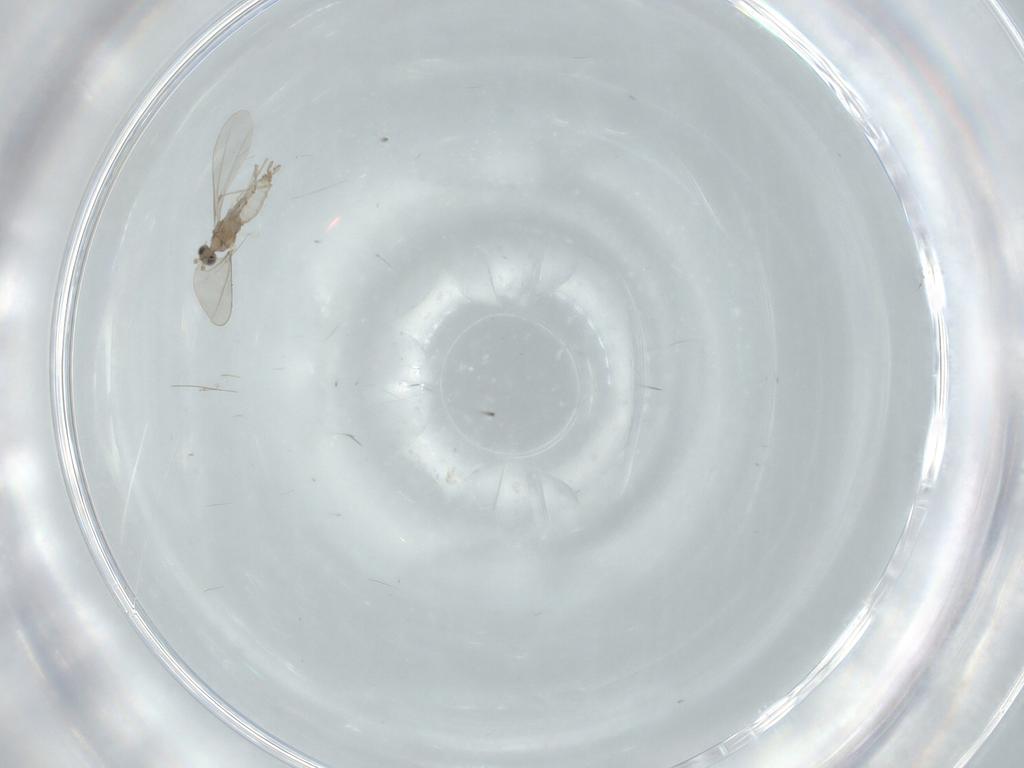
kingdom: Animalia
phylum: Arthropoda
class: Insecta
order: Diptera
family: Cecidomyiidae
